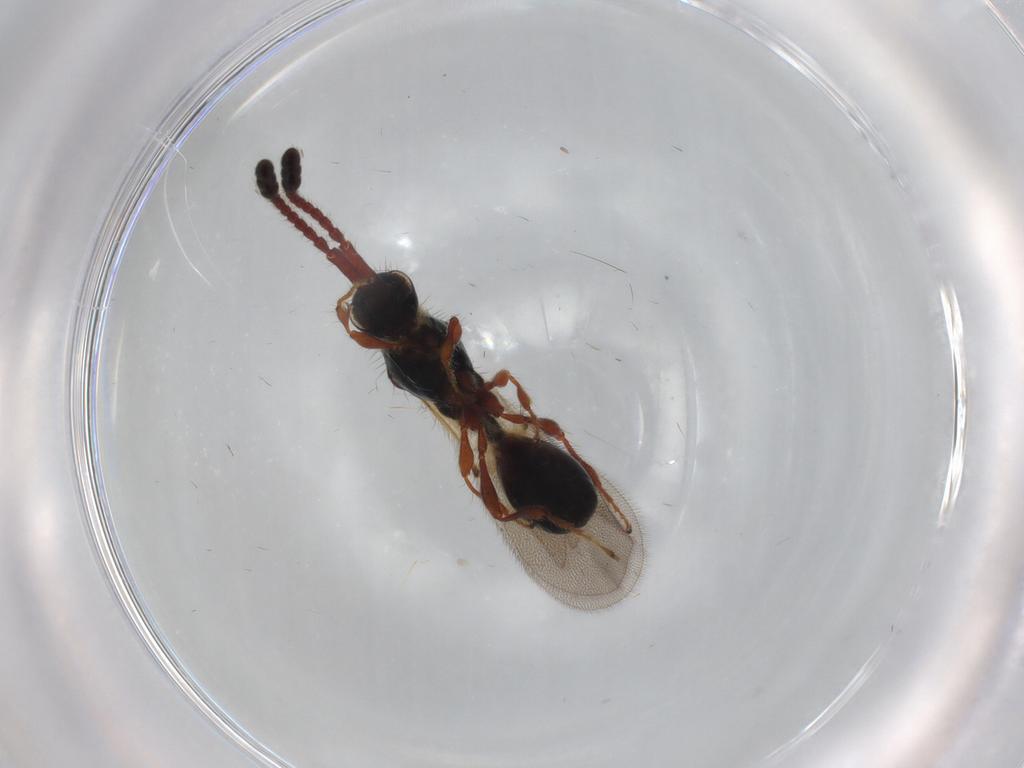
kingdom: Animalia
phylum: Arthropoda
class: Insecta
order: Hymenoptera
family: Diapriidae
